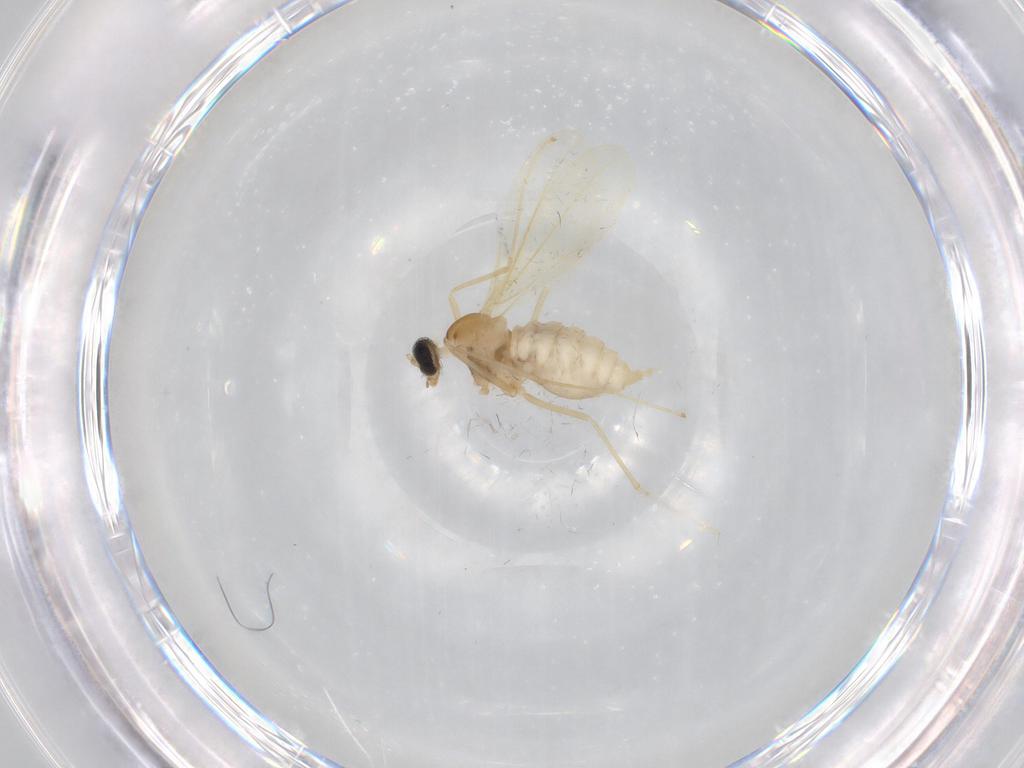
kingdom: Animalia
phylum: Arthropoda
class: Insecta
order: Diptera
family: Cecidomyiidae
